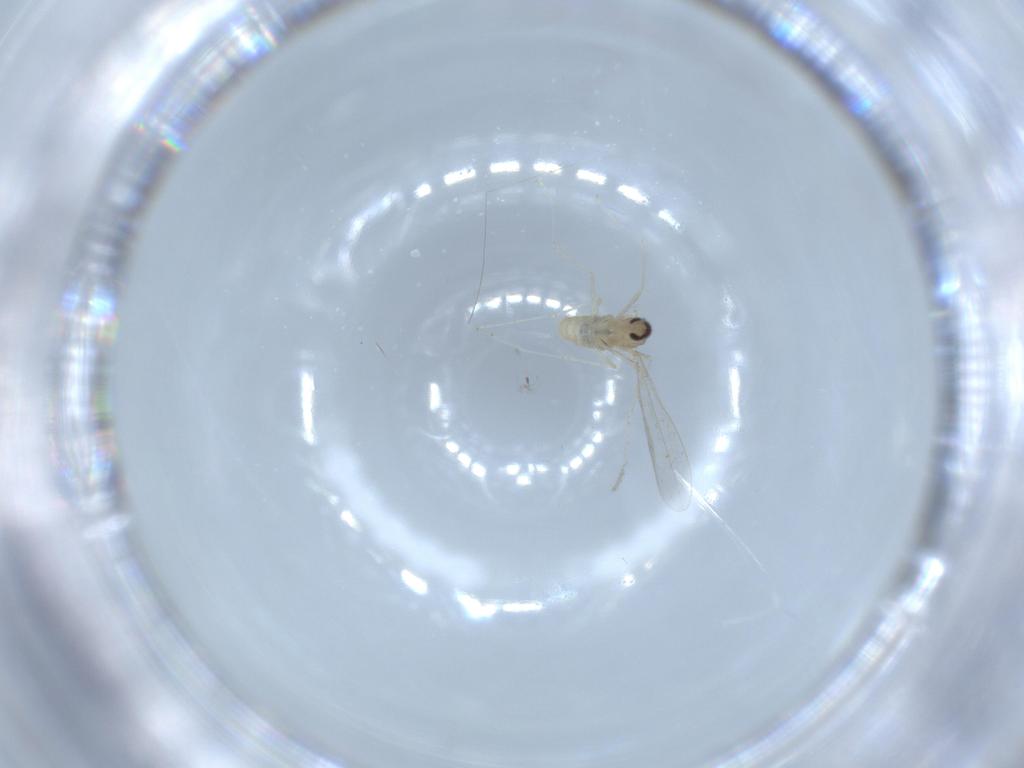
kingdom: Animalia
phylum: Arthropoda
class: Insecta
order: Diptera
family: Cecidomyiidae
